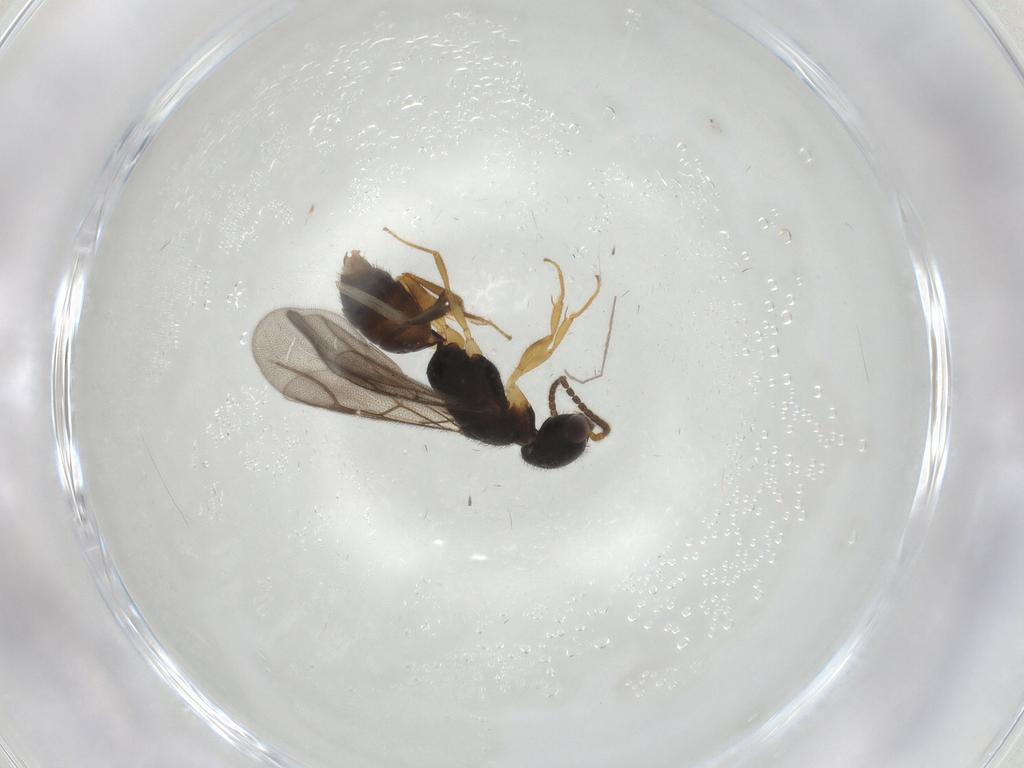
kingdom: Animalia
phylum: Arthropoda
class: Insecta
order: Hymenoptera
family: Bethylidae
